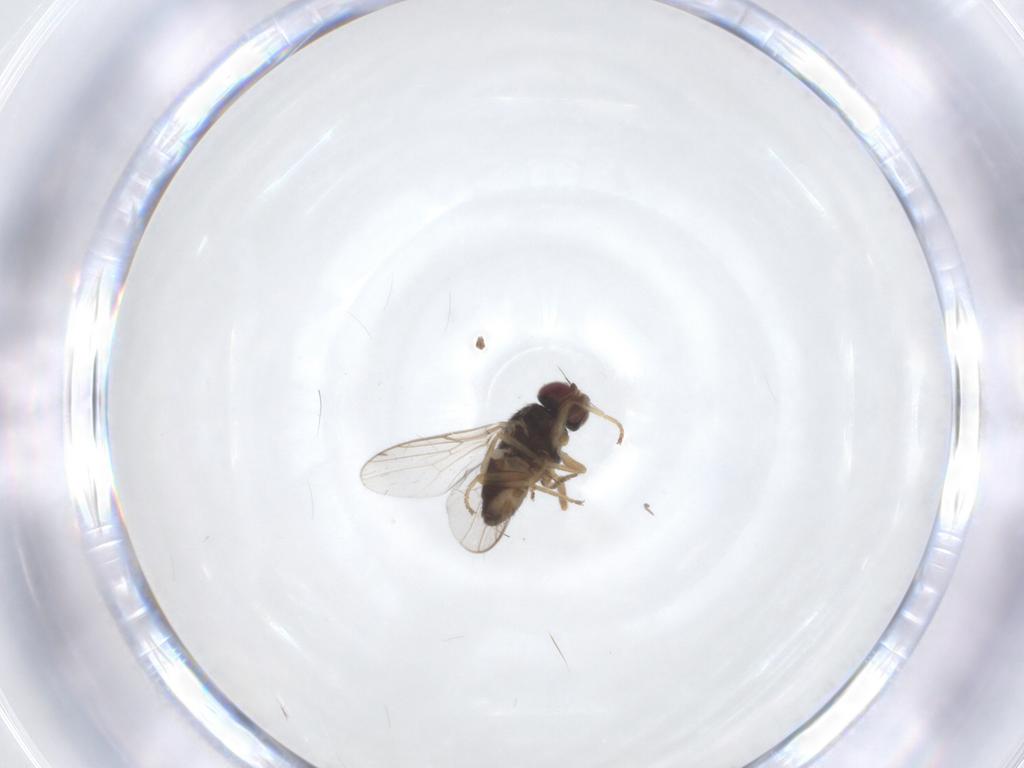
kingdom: Animalia
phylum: Arthropoda
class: Insecta
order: Diptera
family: Chloropidae
